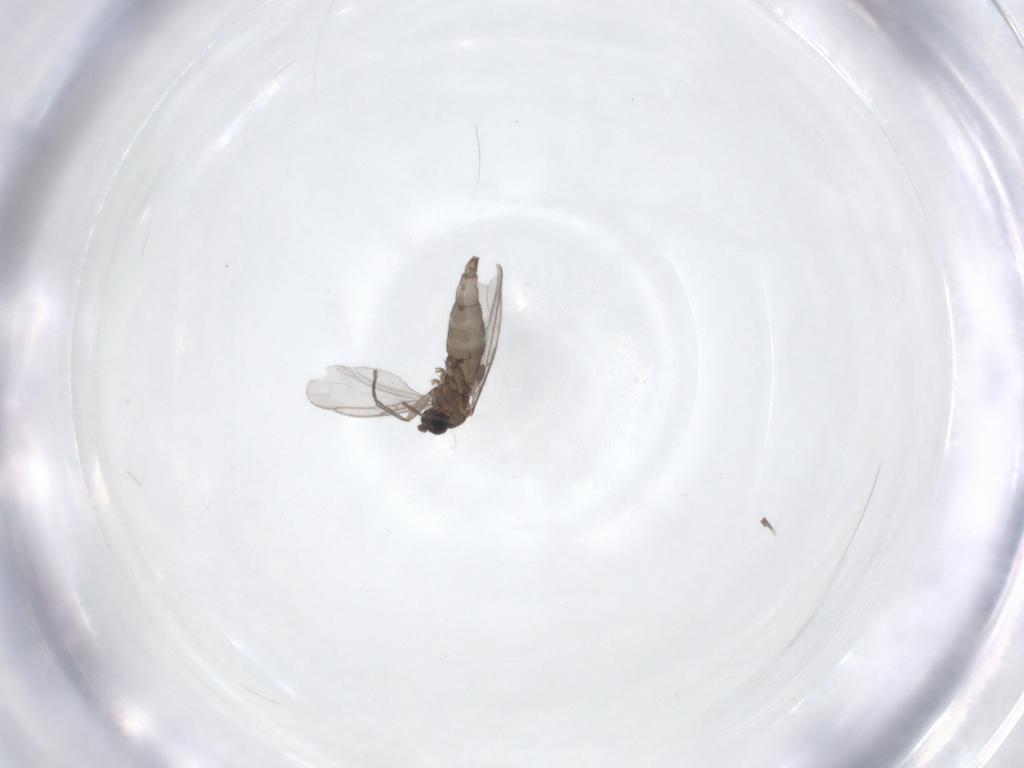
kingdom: Animalia
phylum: Arthropoda
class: Insecta
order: Diptera
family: Sciaridae
